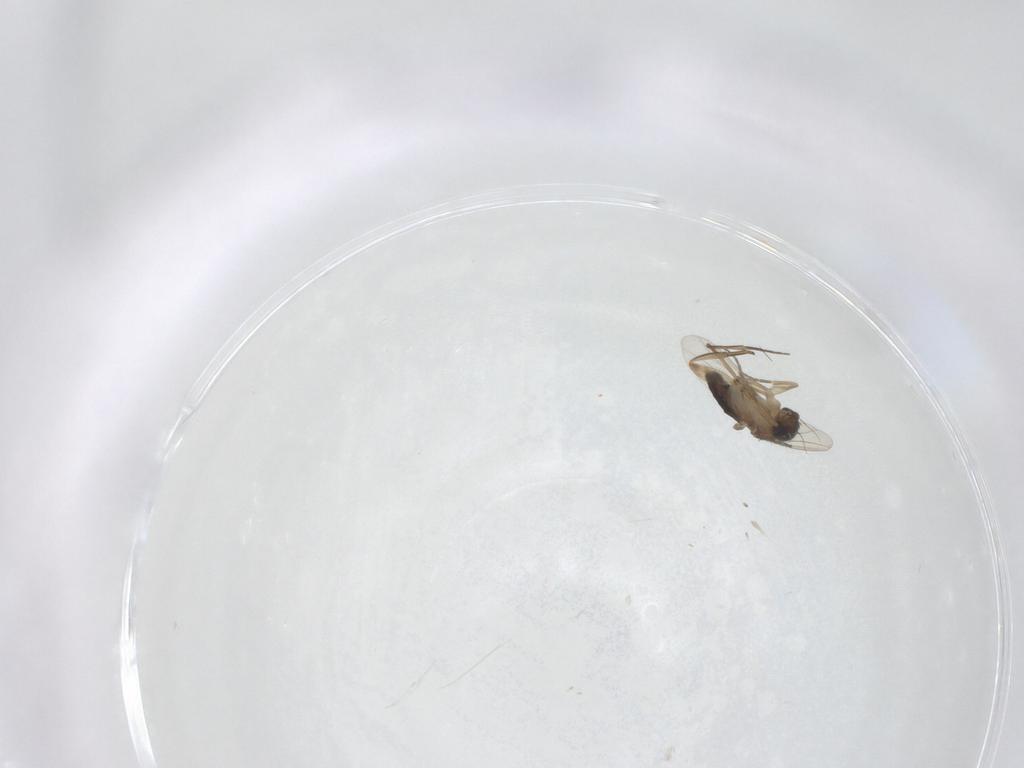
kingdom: Animalia
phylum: Arthropoda
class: Insecta
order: Diptera
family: Phoridae
